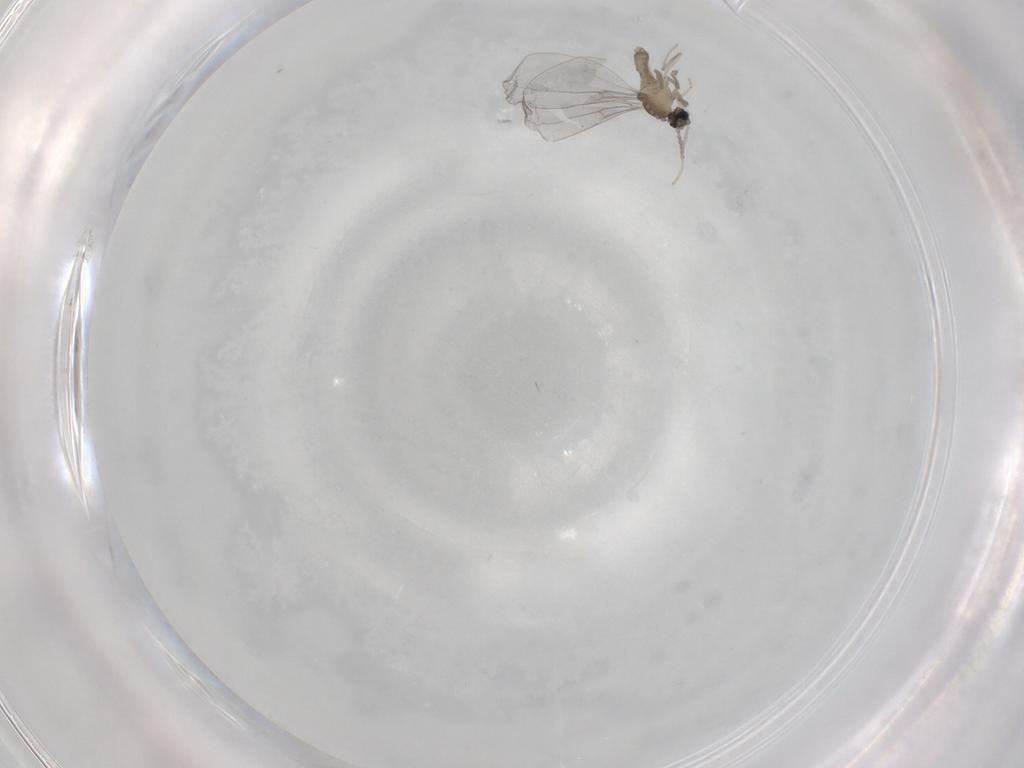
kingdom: Animalia
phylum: Arthropoda
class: Insecta
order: Diptera
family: Cecidomyiidae
